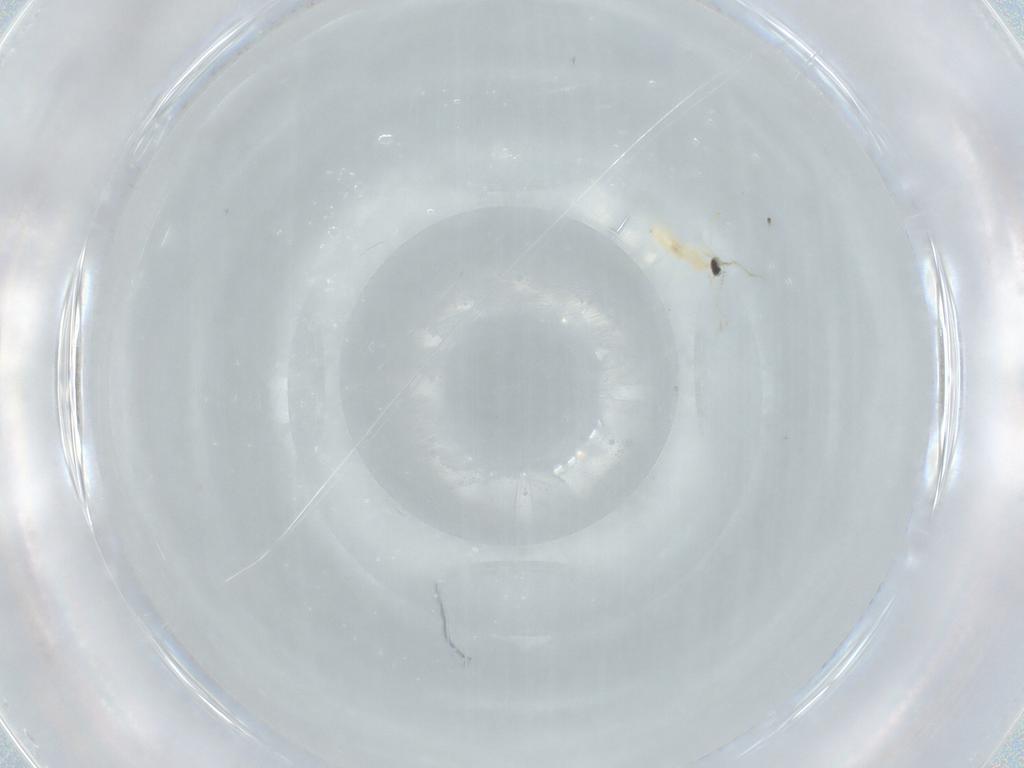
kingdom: Animalia
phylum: Arthropoda
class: Insecta
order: Diptera
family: Cecidomyiidae
